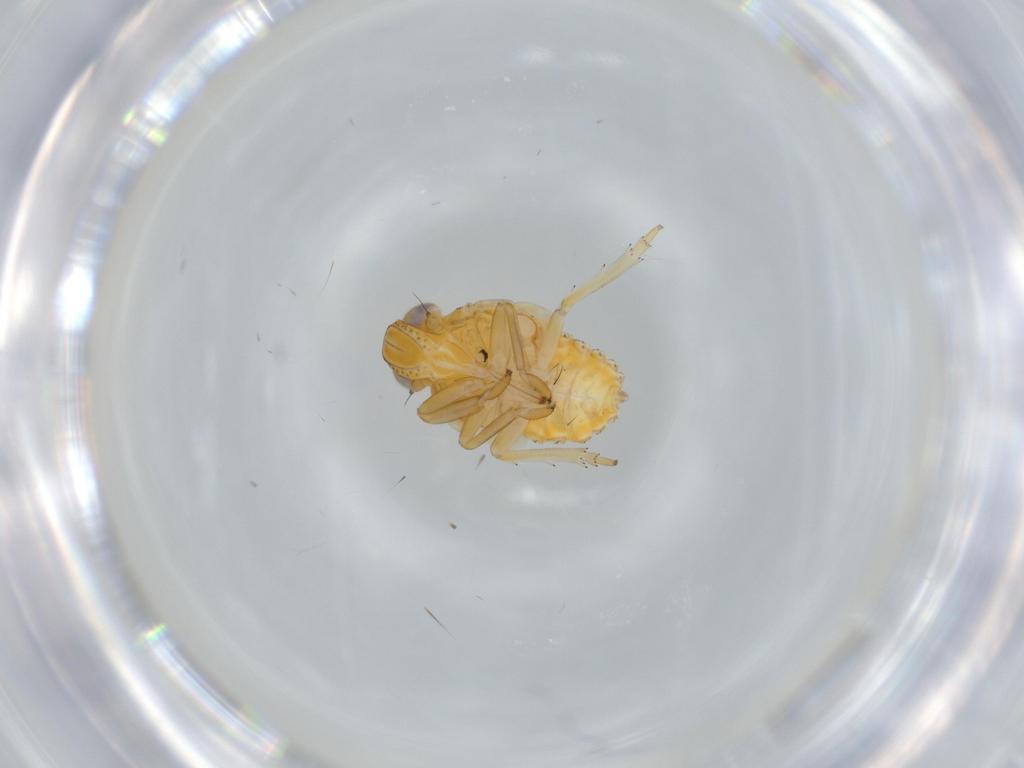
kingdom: Animalia
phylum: Arthropoda
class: Insecta
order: Hemiptera
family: Issidae
